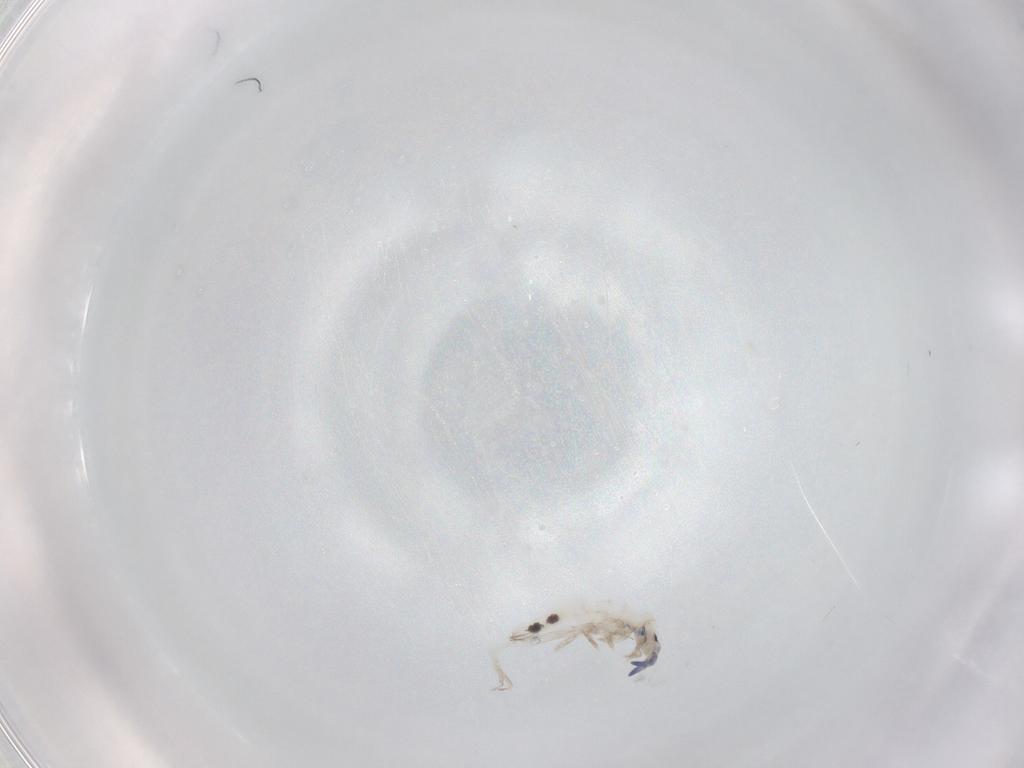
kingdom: Animalia
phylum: Arthropoda
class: Collembola
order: Entomobryomorpha
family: Entomobryidae
